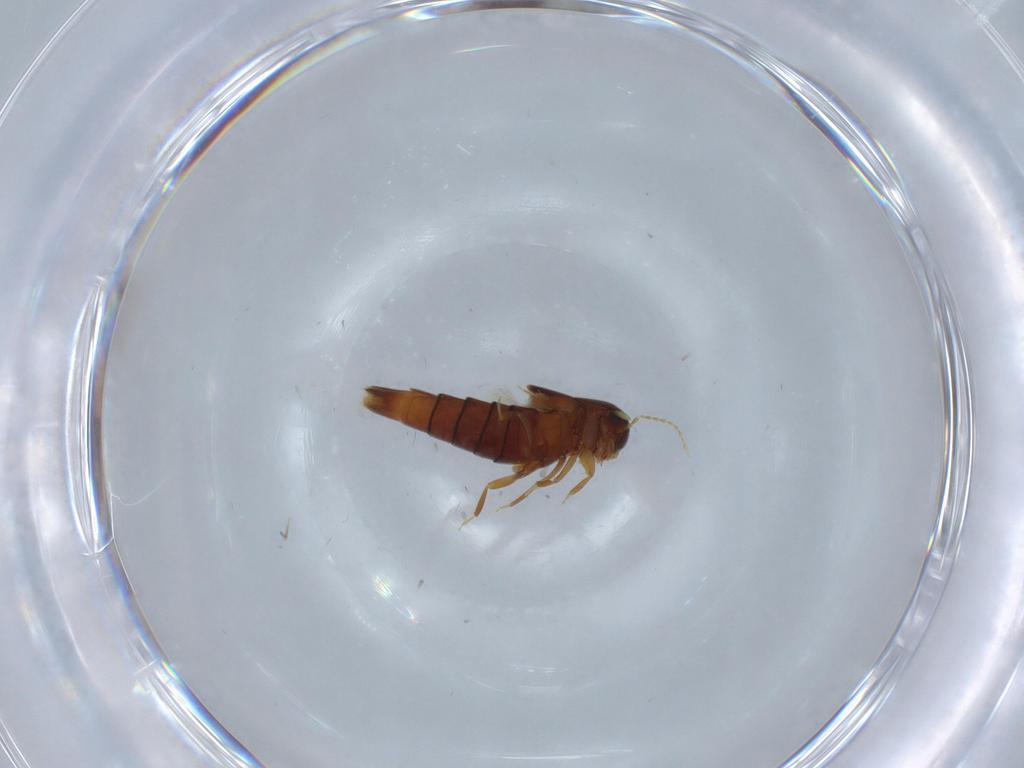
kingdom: Animalia
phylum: Arthropoda
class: Insecta
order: Coleoptera
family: Staphylinidae
